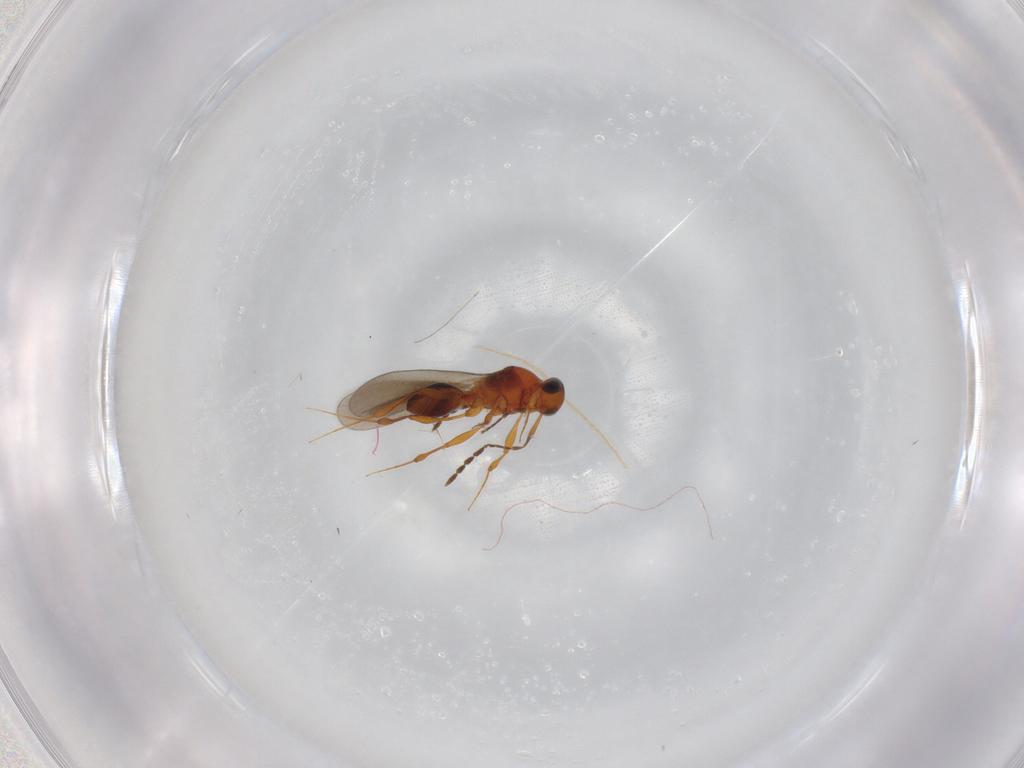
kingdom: Animalia
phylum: Arthropoda
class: Insecta
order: Hymenoptera
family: Platygastridae
